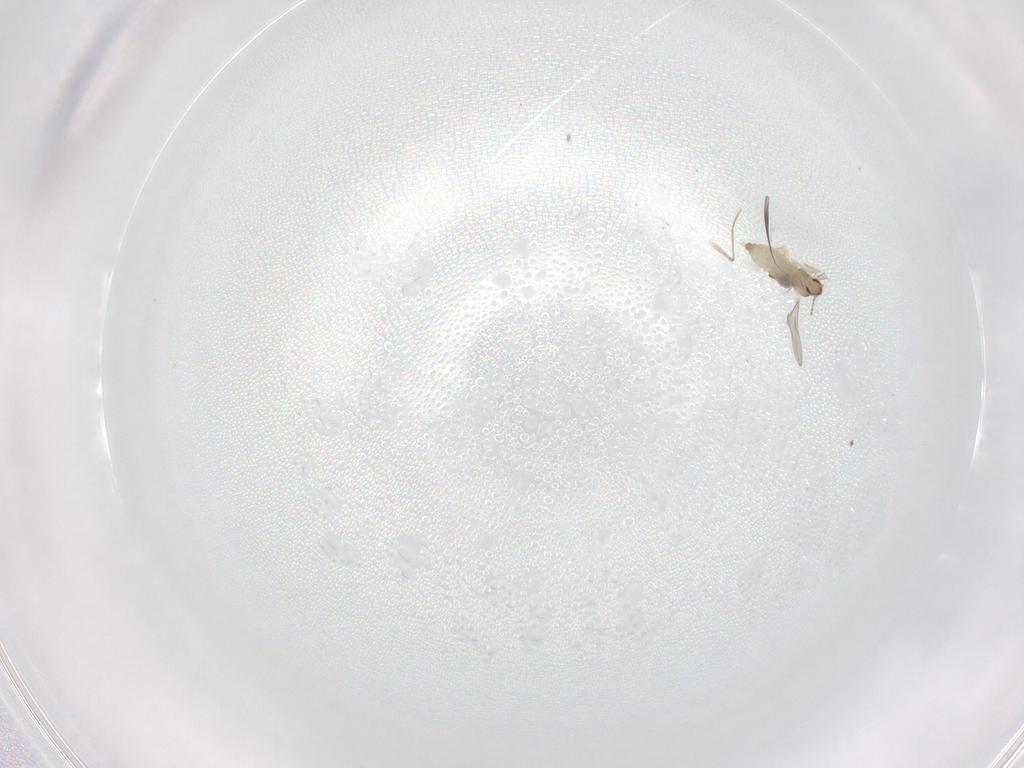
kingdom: Animalia
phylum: Arthropoda
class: Insecta
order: Diptera
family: Cecidomyiidae
